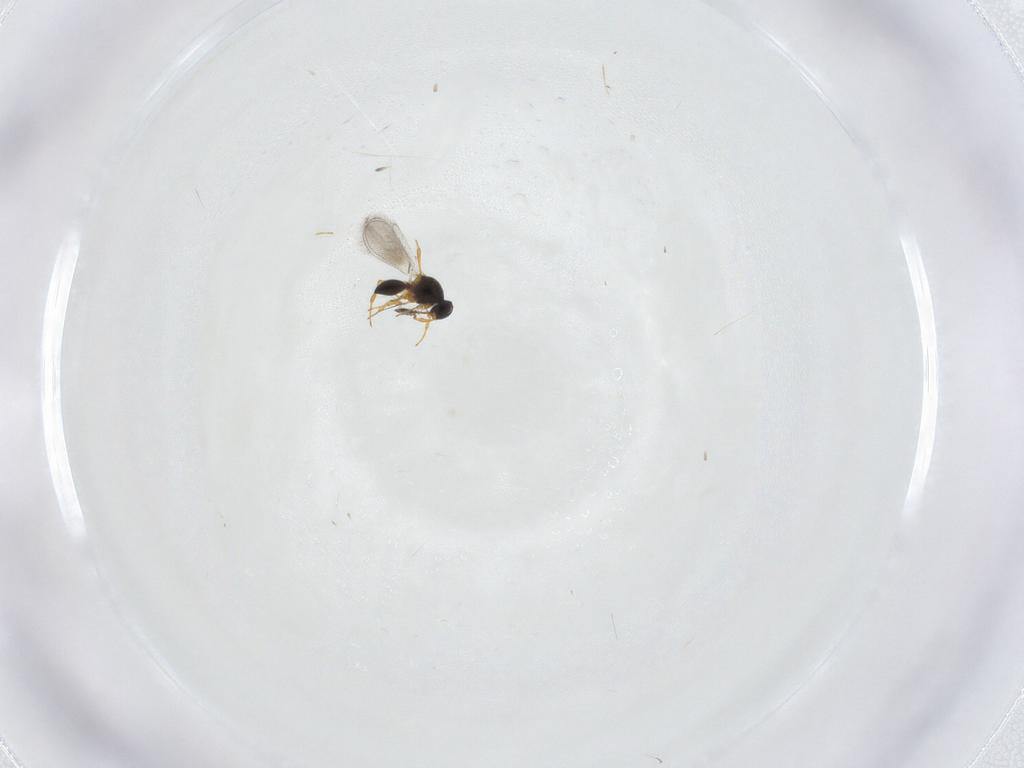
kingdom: Animalia
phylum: Arthropoda
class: Insecta
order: Hymenoptera
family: Platygastridae
